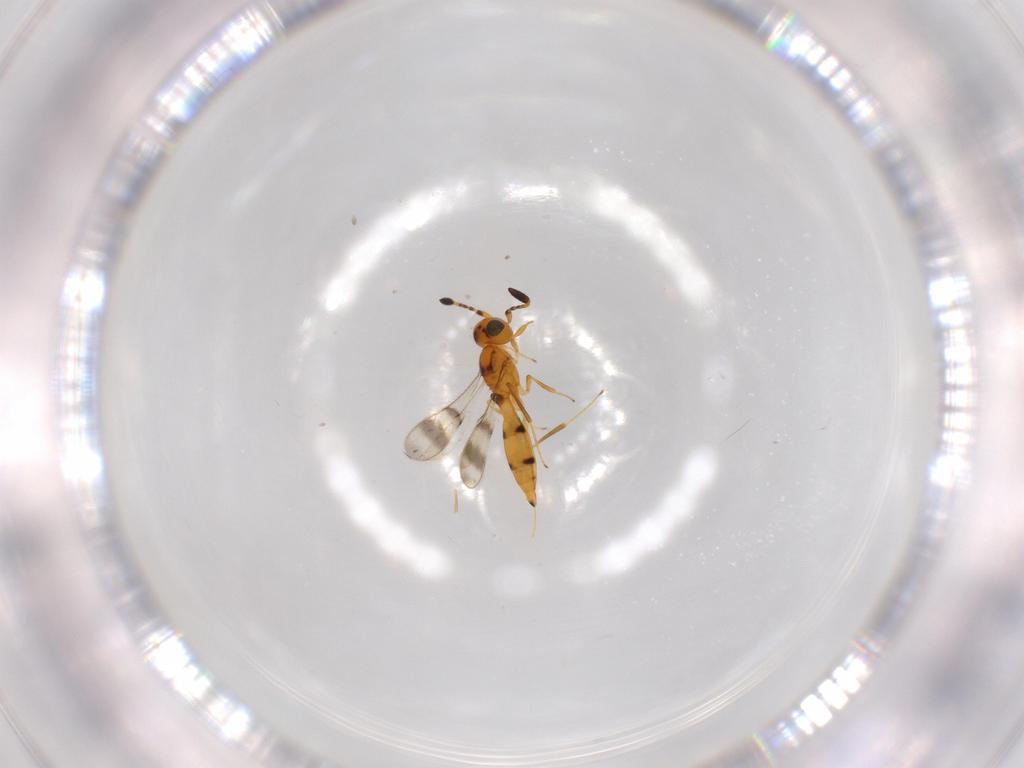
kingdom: Animalia
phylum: Arthropoda
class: Insecta
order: Hymenoptera
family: Scelionidae
